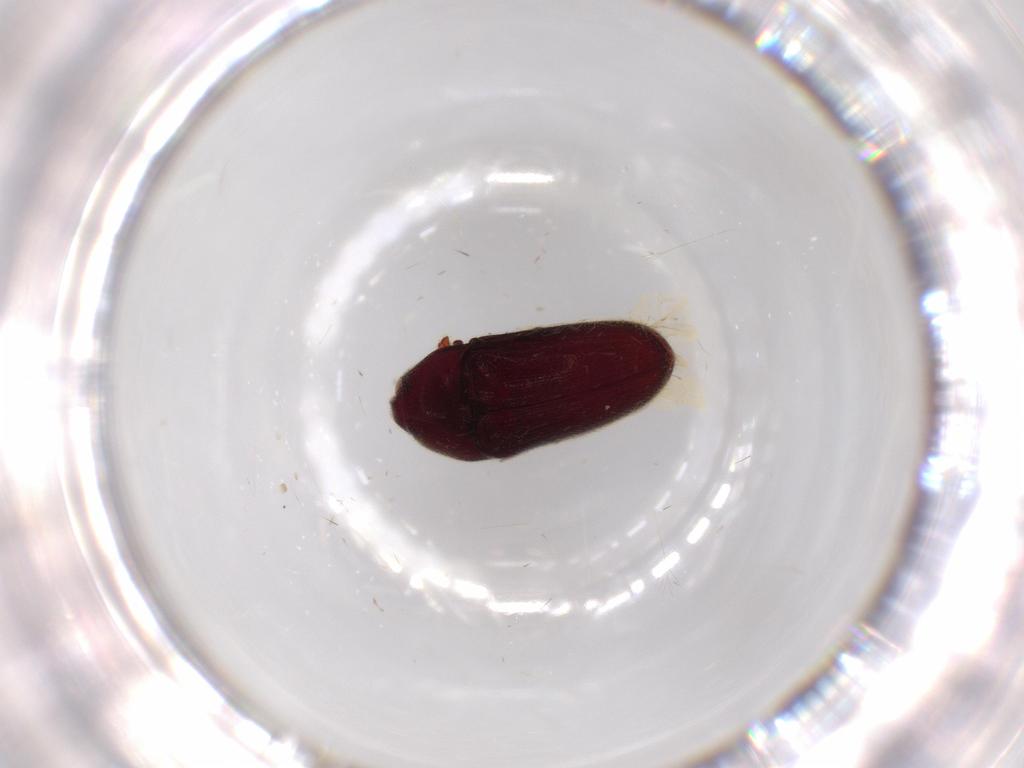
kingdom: Animalia
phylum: Arthropoda
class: Insecta
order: Coleoptera
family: Throscidae
